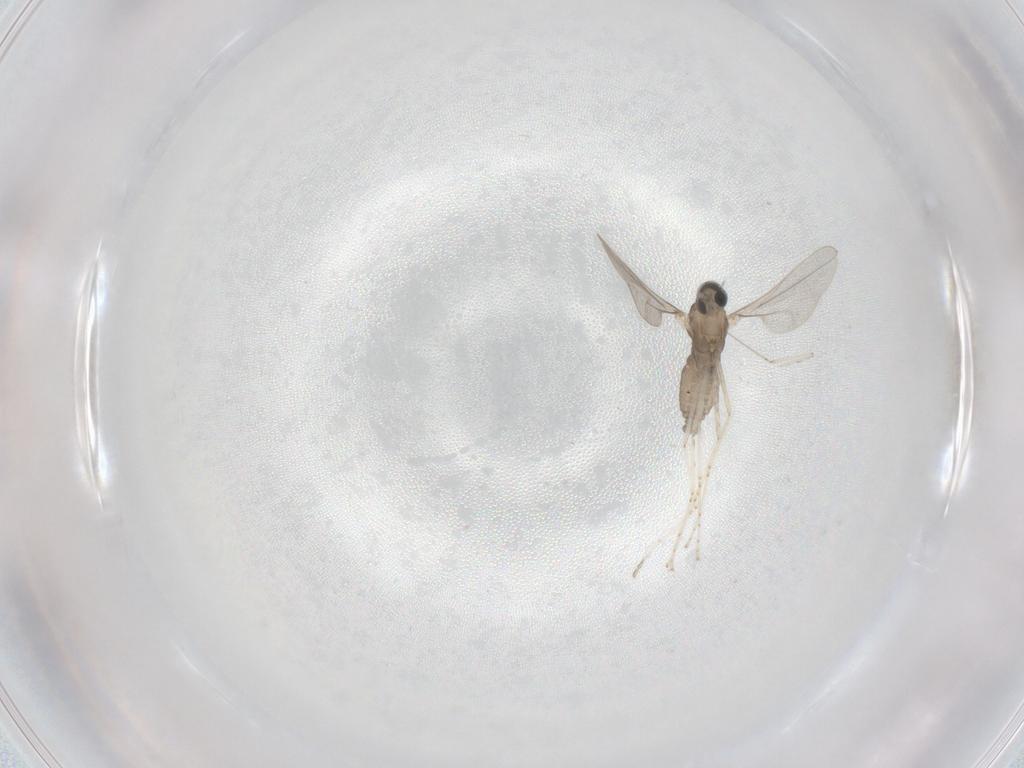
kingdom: Animalia
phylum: Arthropoda
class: Insecta
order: Diptera
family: Cecidomyiidae
